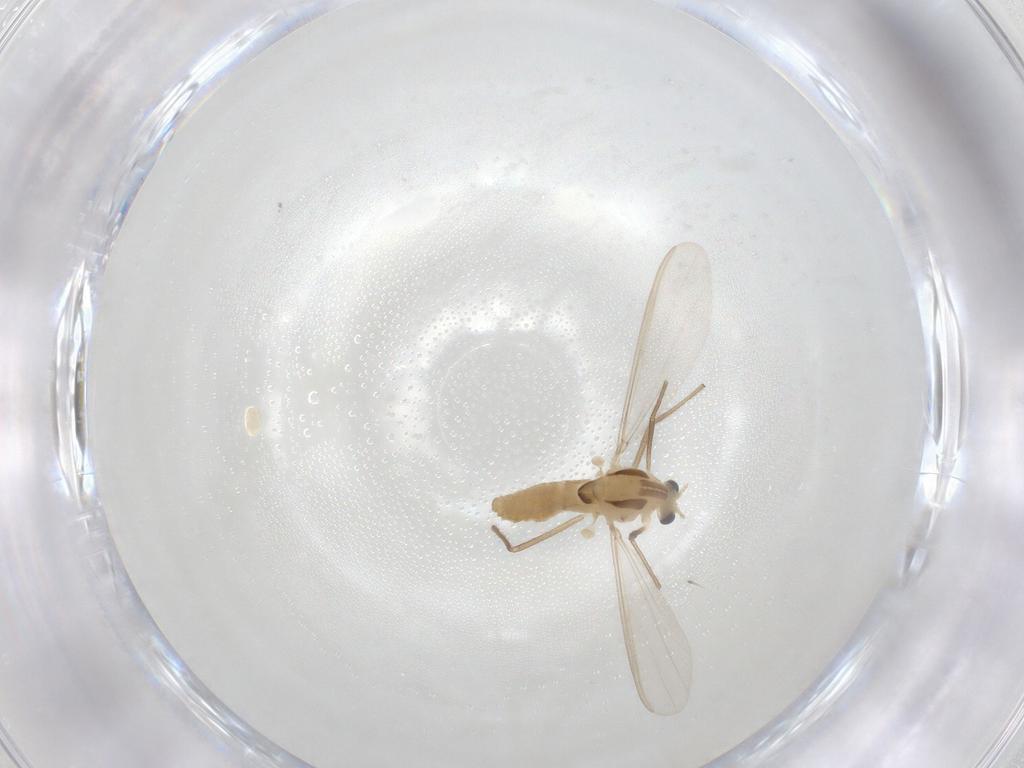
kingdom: Animalia
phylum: Arthropoda
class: Insecta
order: Diptera
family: Chironomidae
